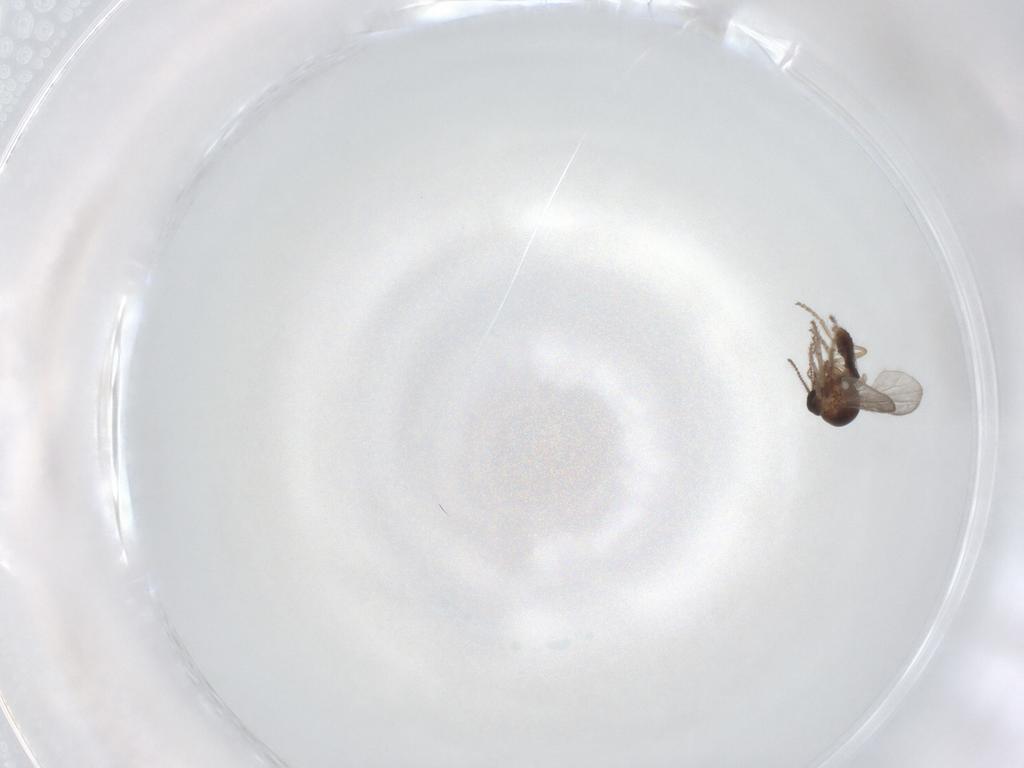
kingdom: Animalia
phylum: Arthropoda
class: Insecta
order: Diptera
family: Ceratopogonidae
